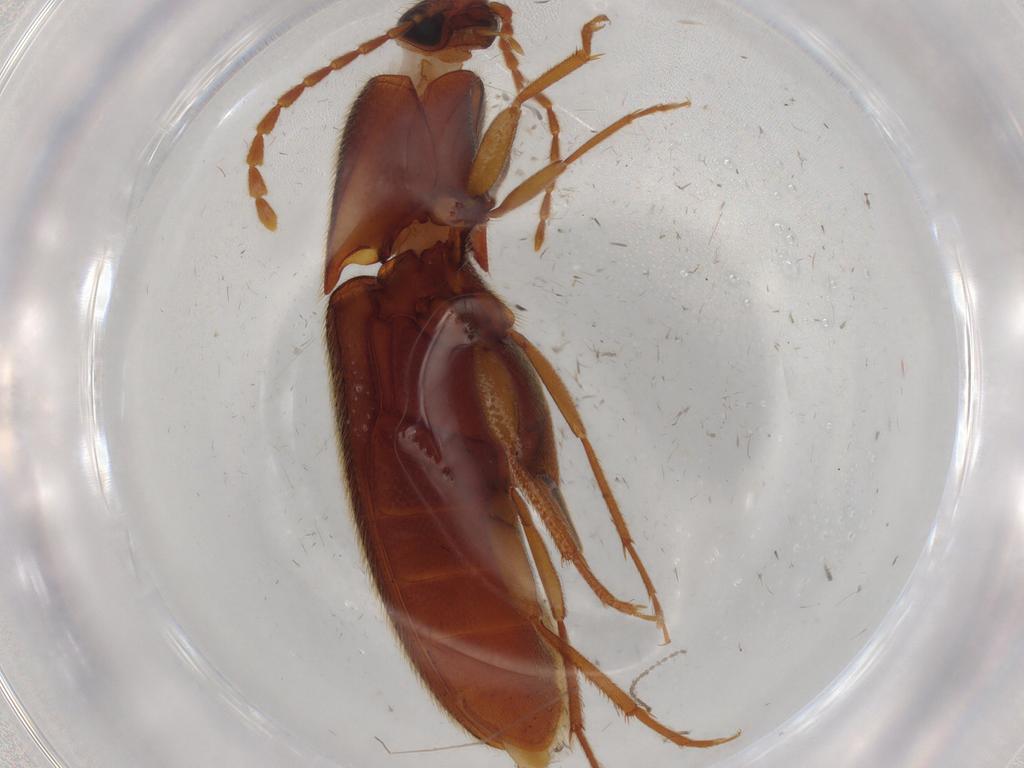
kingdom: Animalia
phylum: Arthropoda
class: Insecta
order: Coleoptera
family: Elateridae
